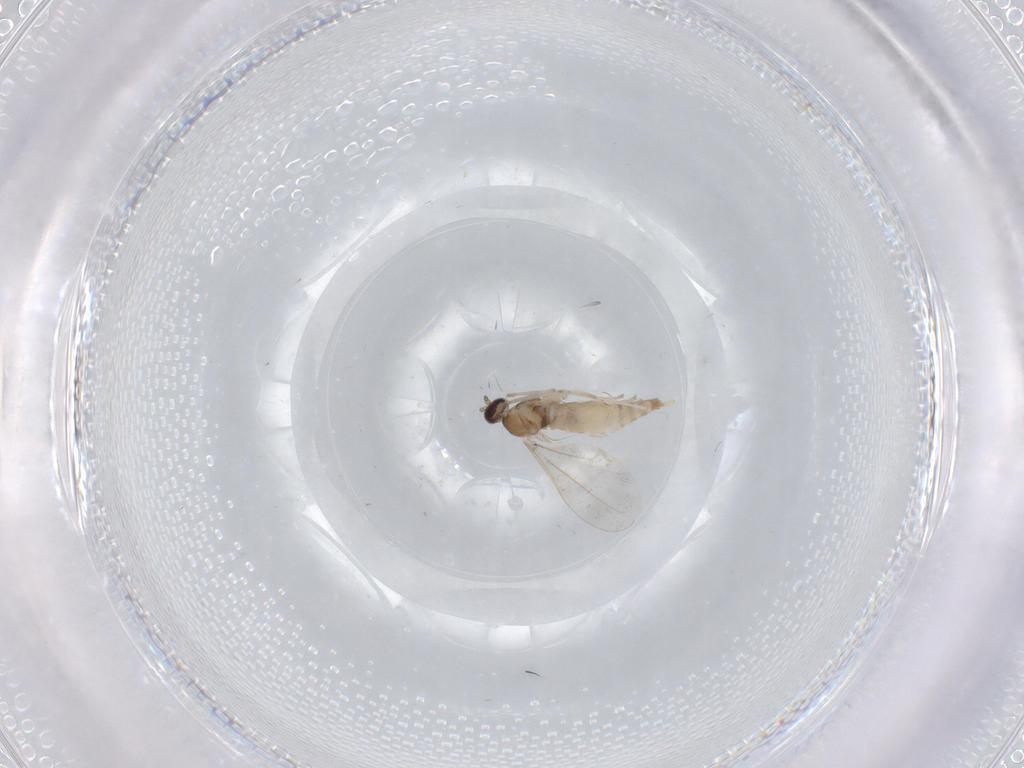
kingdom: Animalia
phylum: Arthropoda
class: Insecta
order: Diptera
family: Cecidomyiidae
